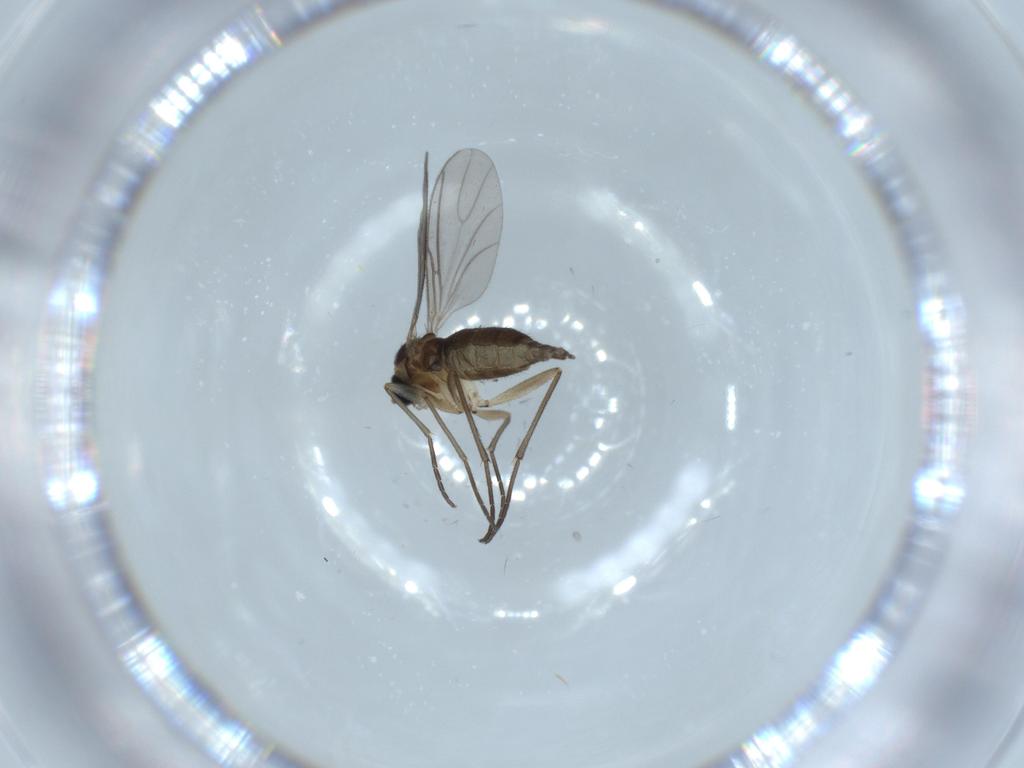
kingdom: Animalia
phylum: Arthropoda
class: Insecta
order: Diptera
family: Sciaridae
